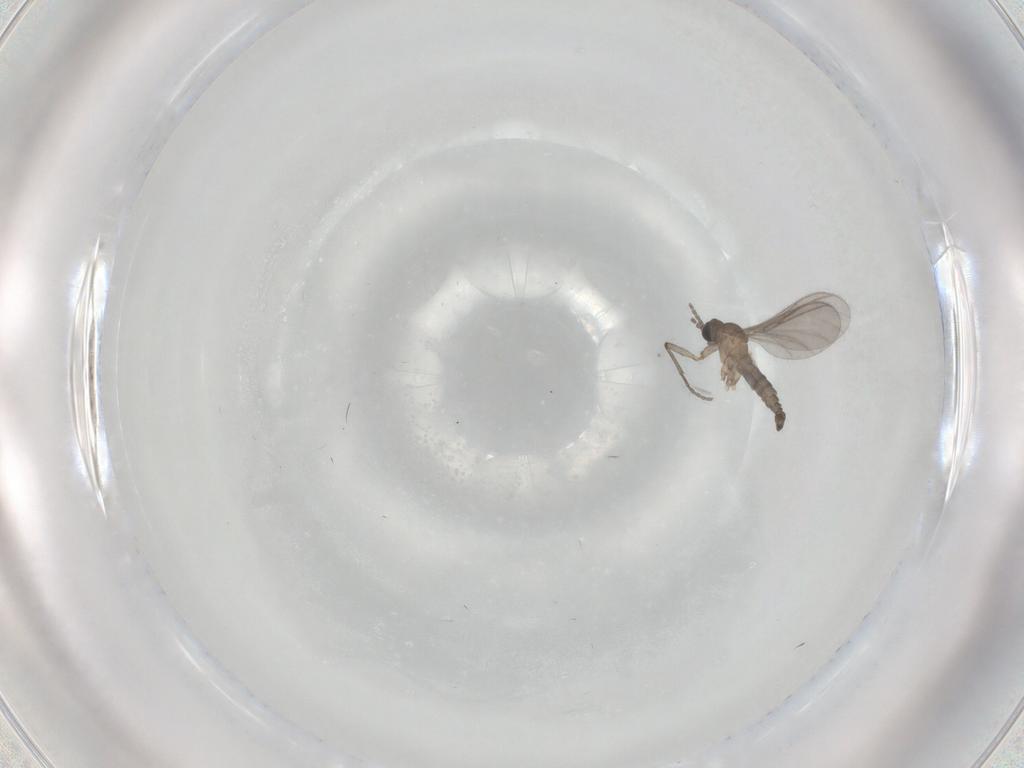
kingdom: Animalia
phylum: Arthropoda
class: Insecta
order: Diptera
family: Sciaridae
